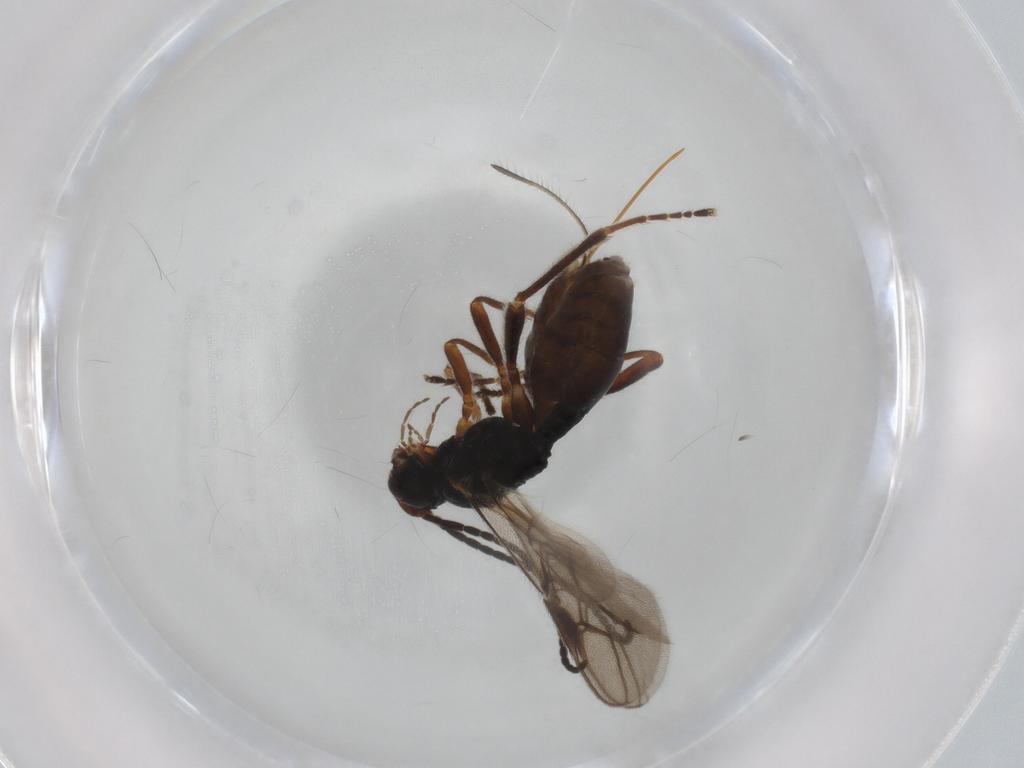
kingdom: Animalia
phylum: Arthropoda
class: Insecta
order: Hymenoptera
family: Braconidae
